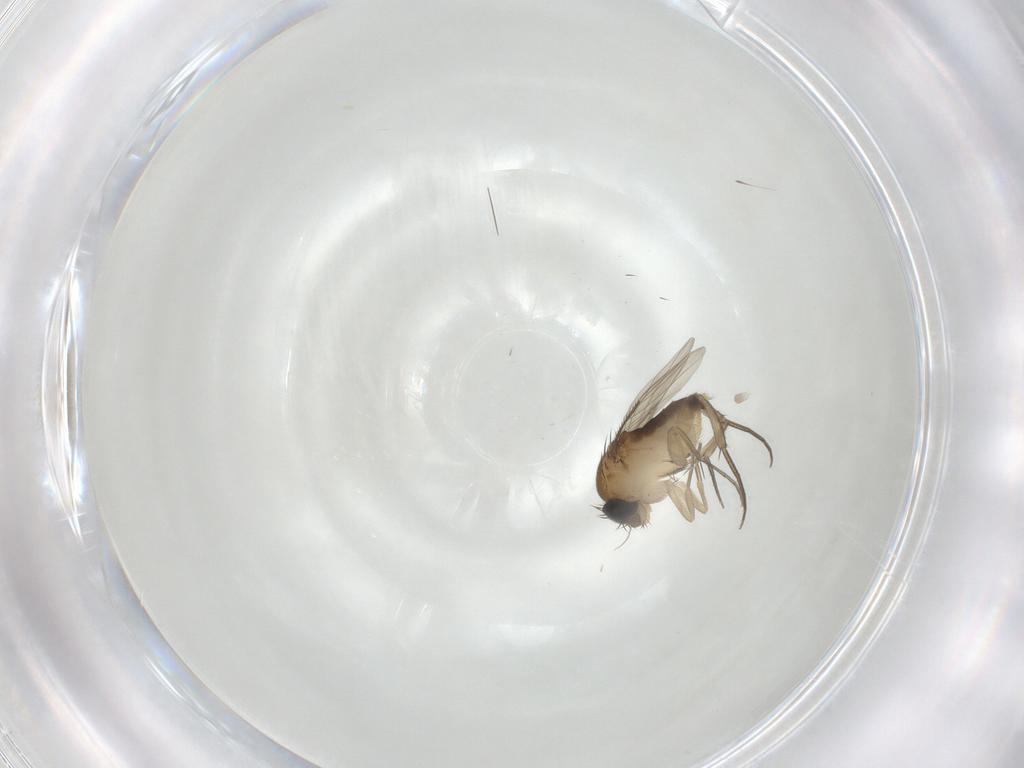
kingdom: Animalia
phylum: Arthropoda
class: Insecta
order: Diptera
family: Phoridae
